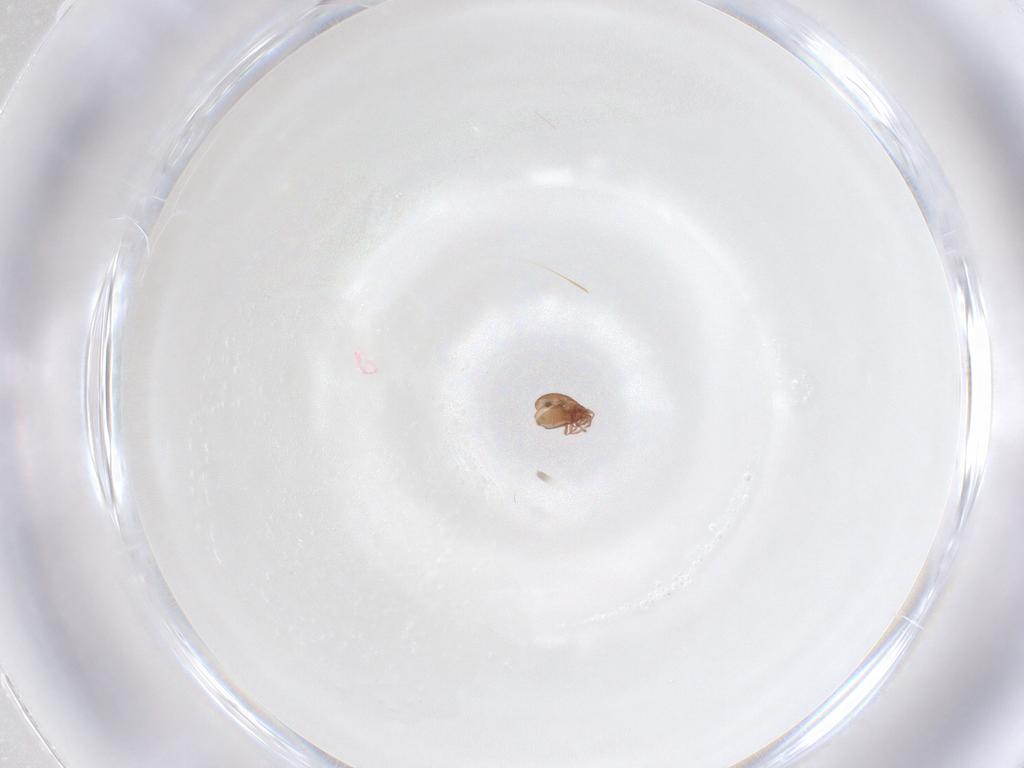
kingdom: Animalia
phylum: Arthropoda
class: Arachnida
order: Sarcoptiformes
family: Scheloribatidae
